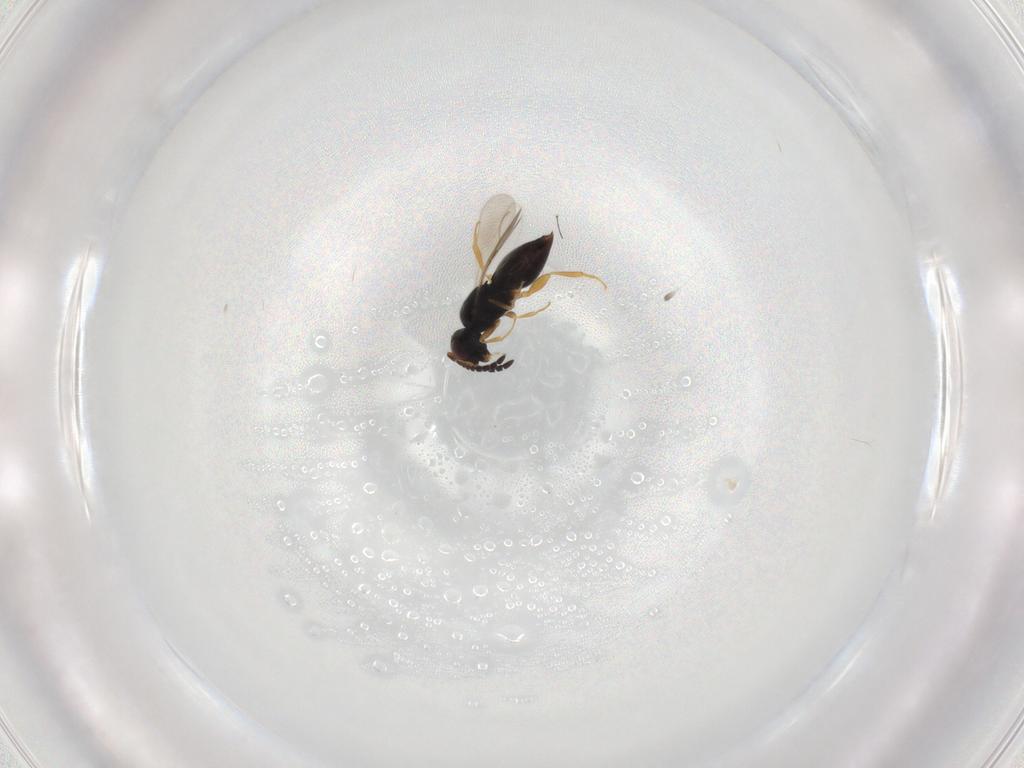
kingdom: Animalia
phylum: Arthropoda
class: Insecta
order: Hymenoptera
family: Ceraphronidae
